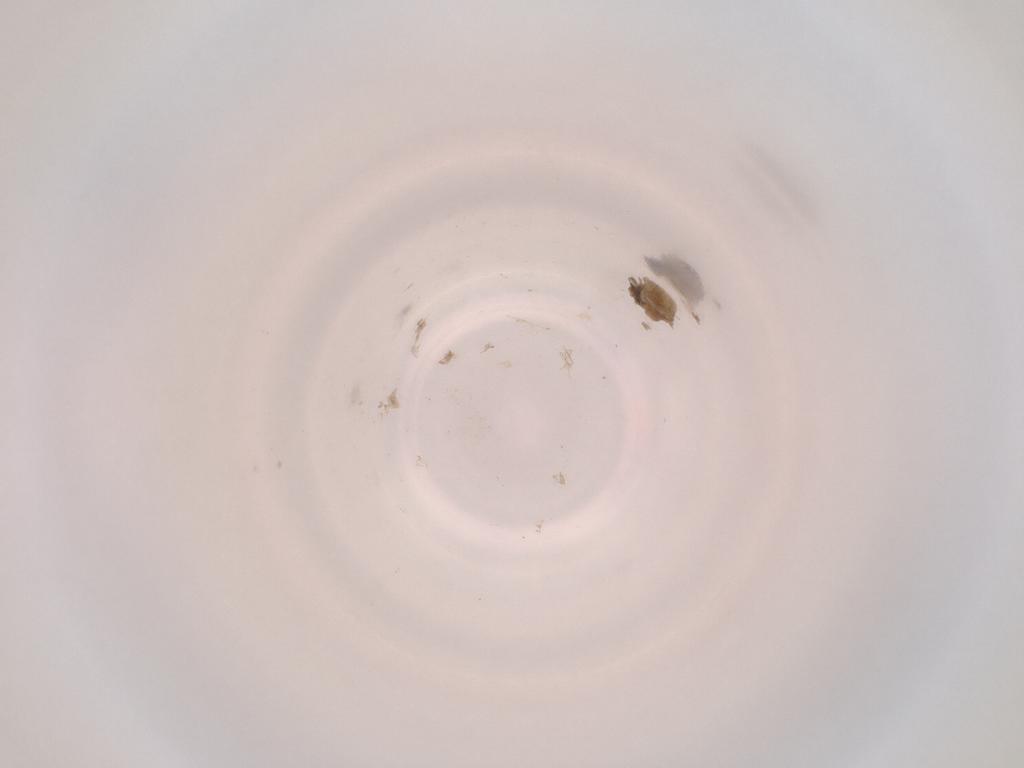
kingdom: Animalia
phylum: Arthropoda
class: Insecta
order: Diptera
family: Cecidomyiidae
